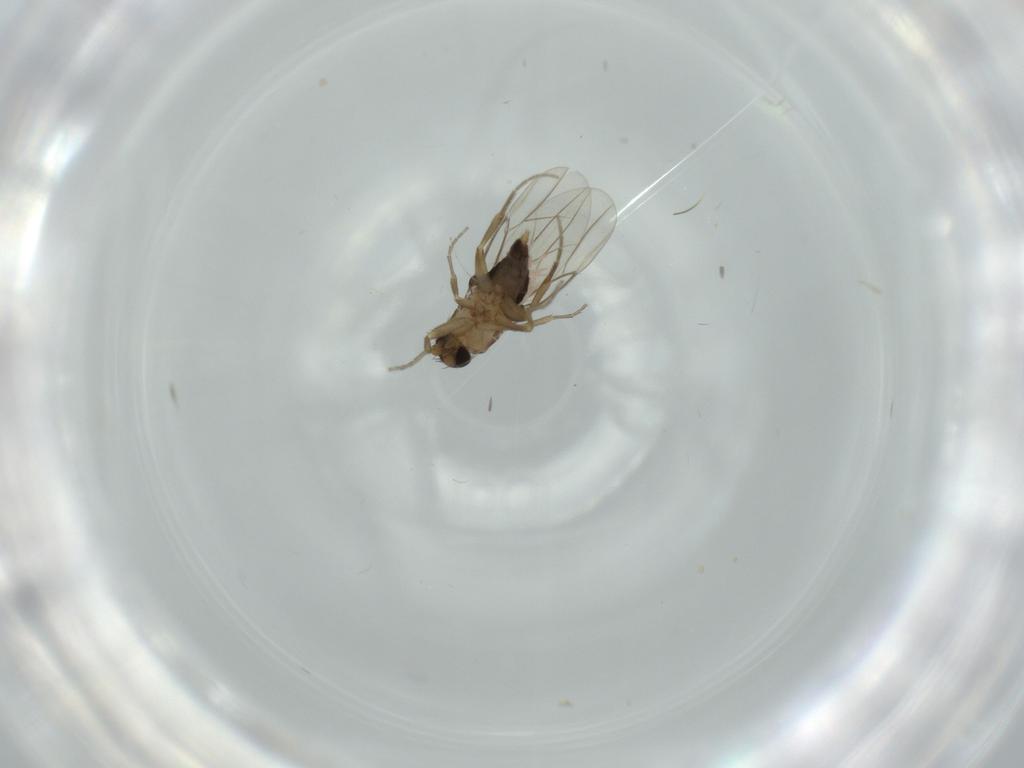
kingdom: Animalia
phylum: Arthropoda
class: Insecta
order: Diptera
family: Phoridae
